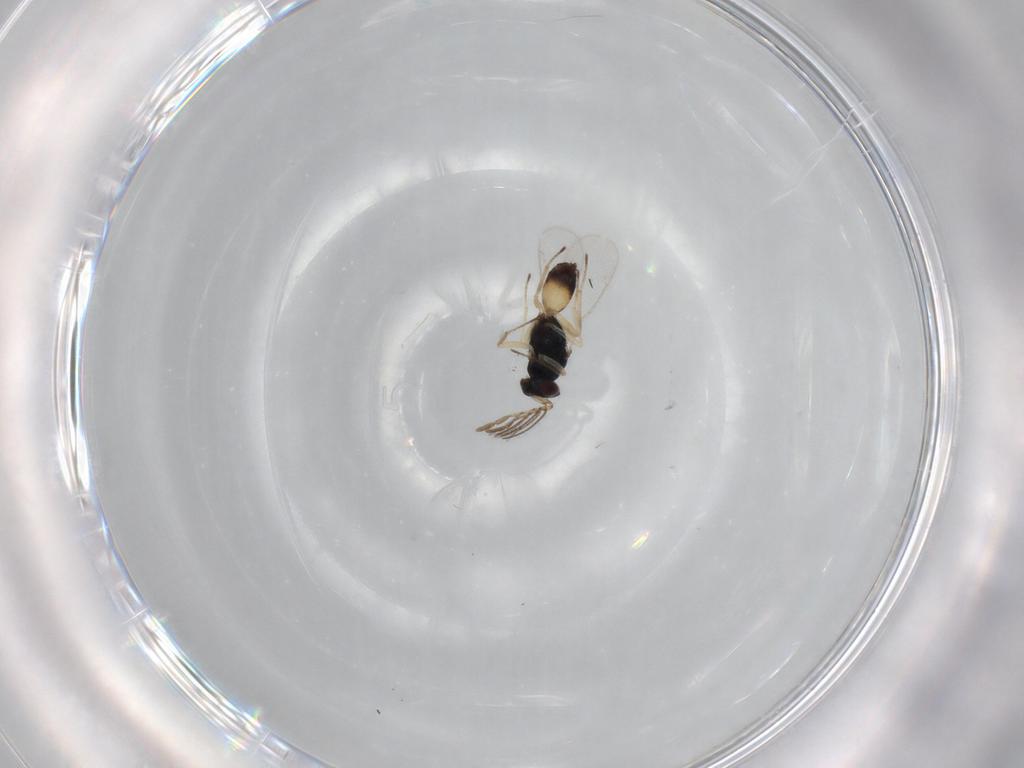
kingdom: Animalia
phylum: Arthropoda
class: Insecta
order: Hymenoptera
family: Eulophidae
